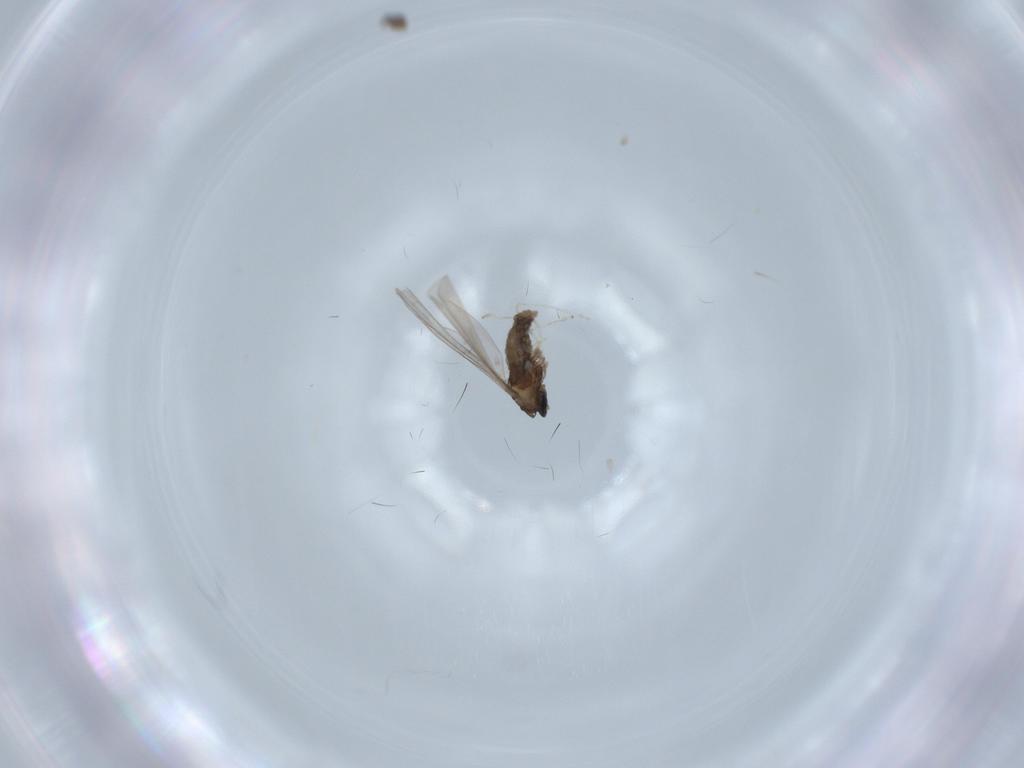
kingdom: Animalia
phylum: Arthropoda
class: Insecta
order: Diptera
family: Cecidomyiidae
